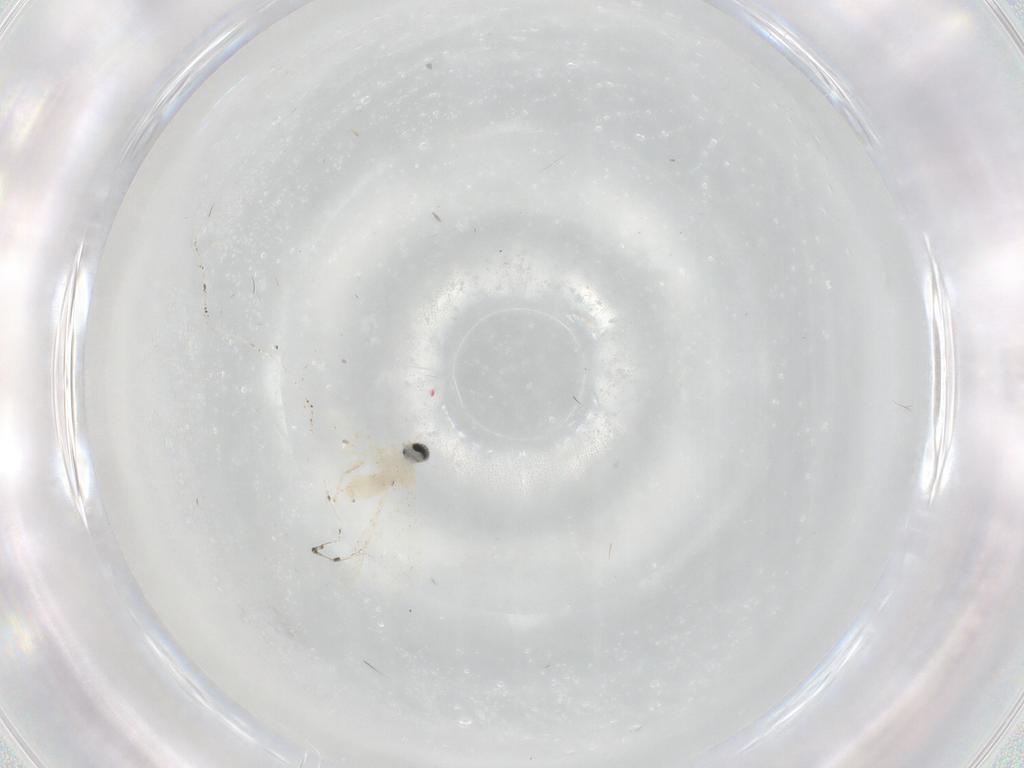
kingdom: Animalia
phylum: Arthropoda
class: Insecta
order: Diptera
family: Cecidomyiidae
